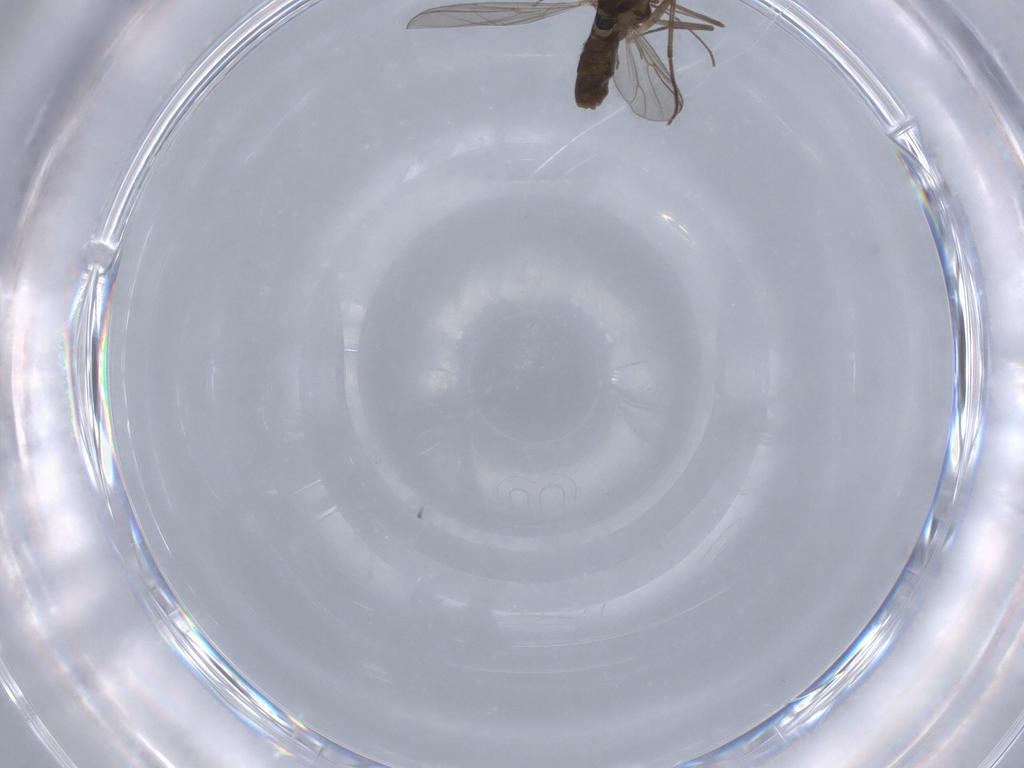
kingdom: Animalia
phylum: Arthropoda
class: Insecta
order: Diptera
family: Chironomidae
